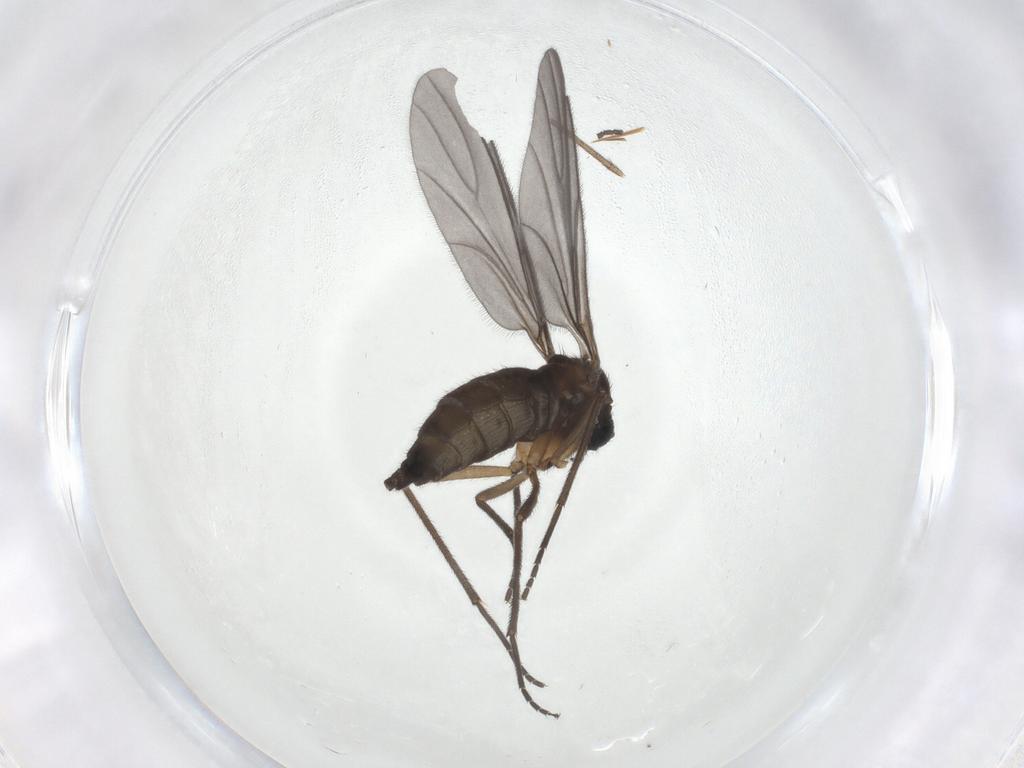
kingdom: Animalia
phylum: Arthropoda
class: Insecta
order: Diptera
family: Sciaridae
